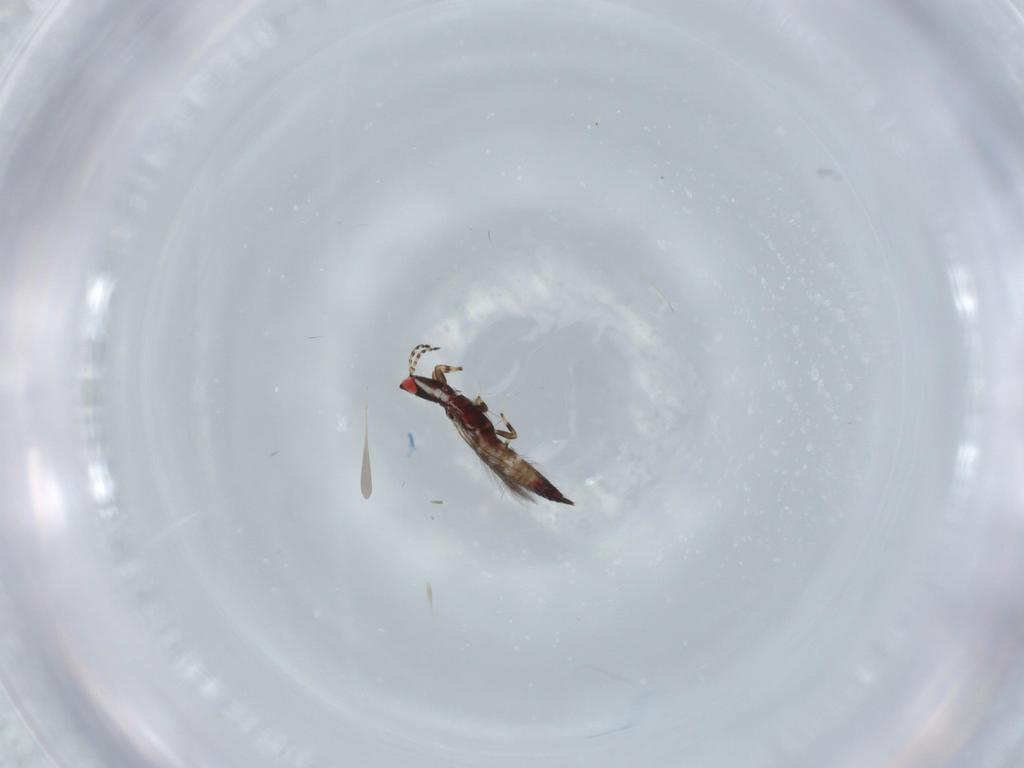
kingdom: Animalia
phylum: Arthropoda
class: Insecta
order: Thysanoptera
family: Phlaeothripidae
